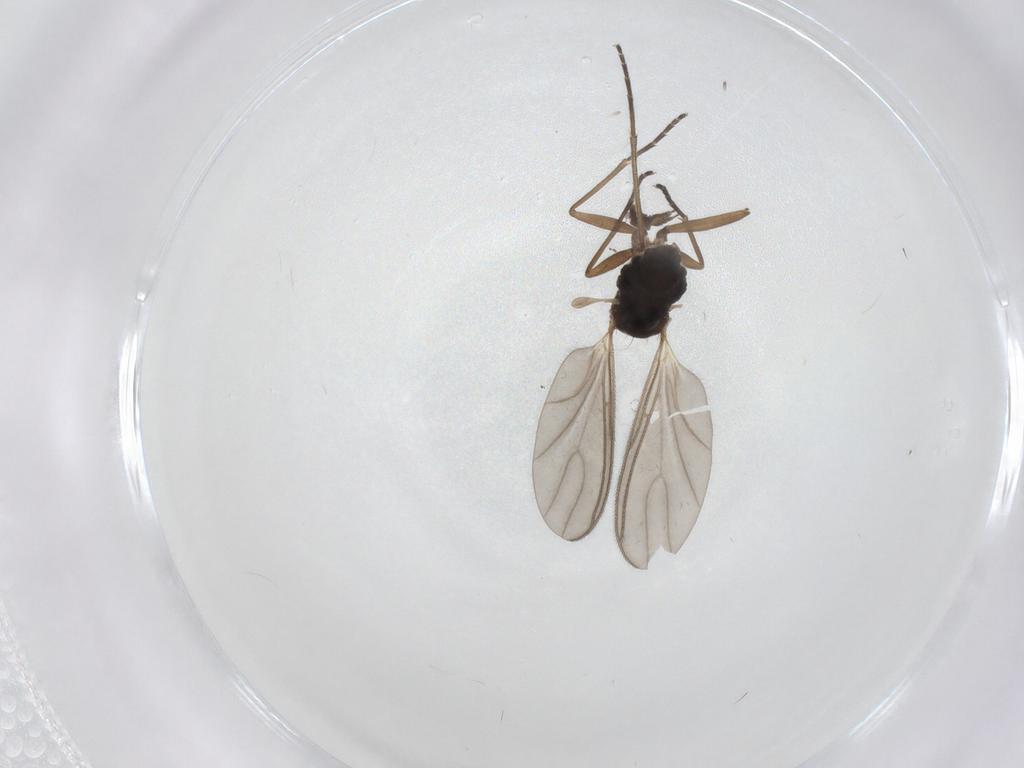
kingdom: Animalia
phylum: Arthropoda
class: Insecta
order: Diptera
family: Sciaridae
